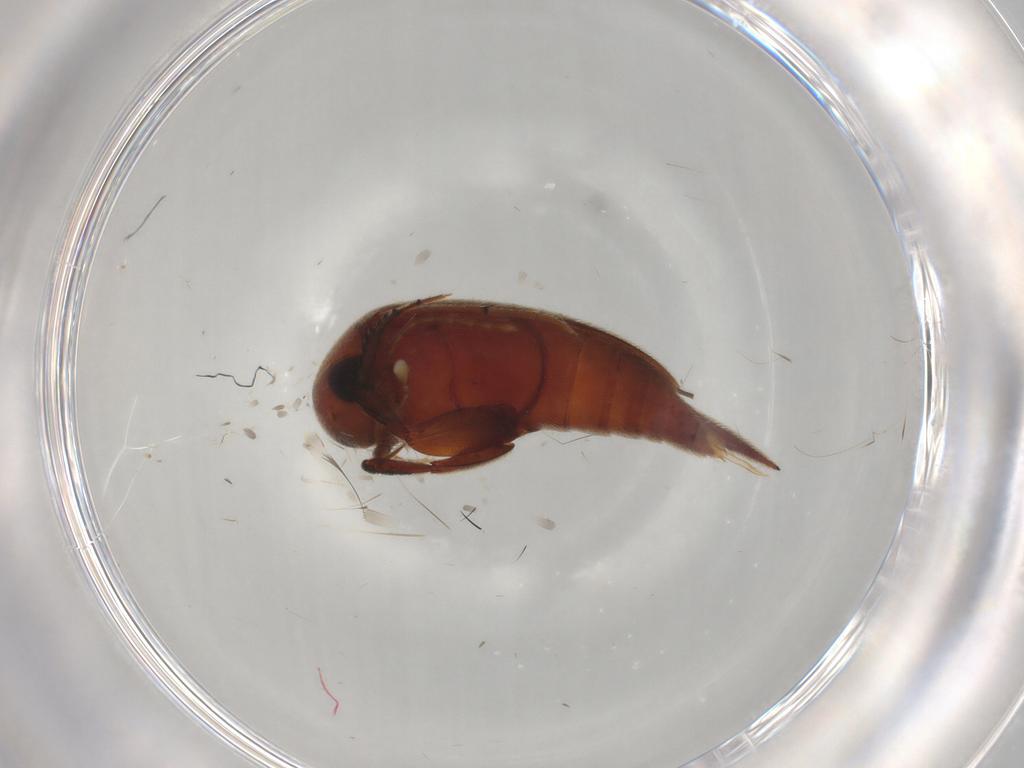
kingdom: Animalia
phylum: Arthropoda
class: Insecta
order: Coleoptera
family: Mordellidae
